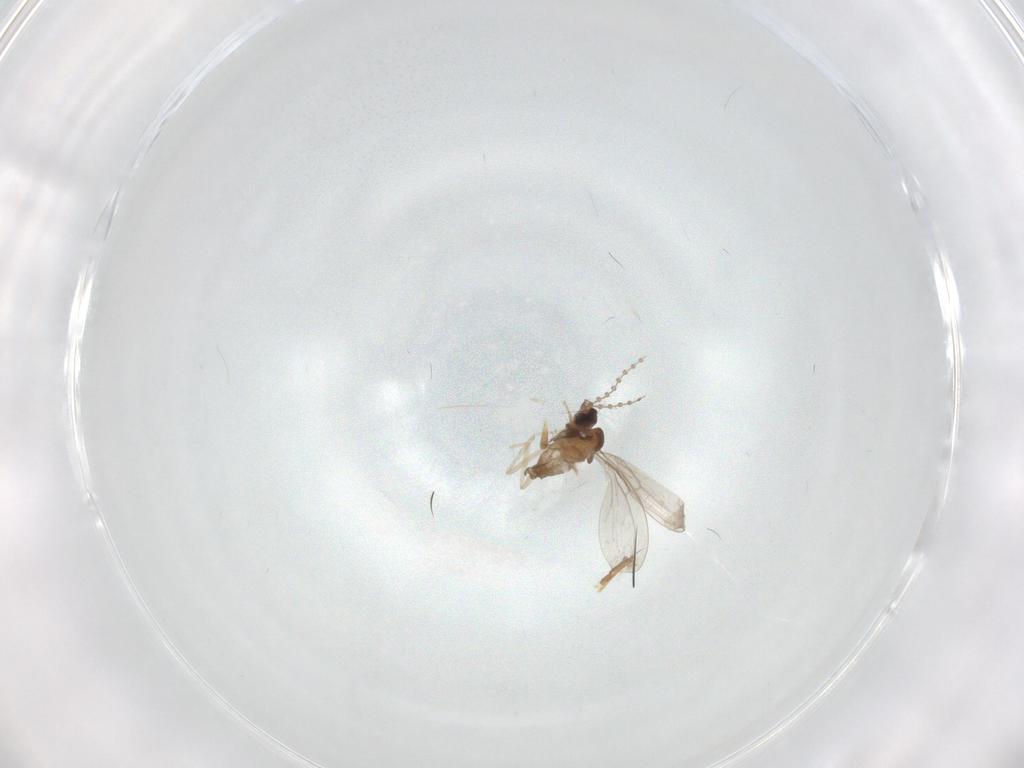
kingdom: Animalia
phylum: Arthropoda
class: Insecta
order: Diptera
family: Cecidomyiidae
